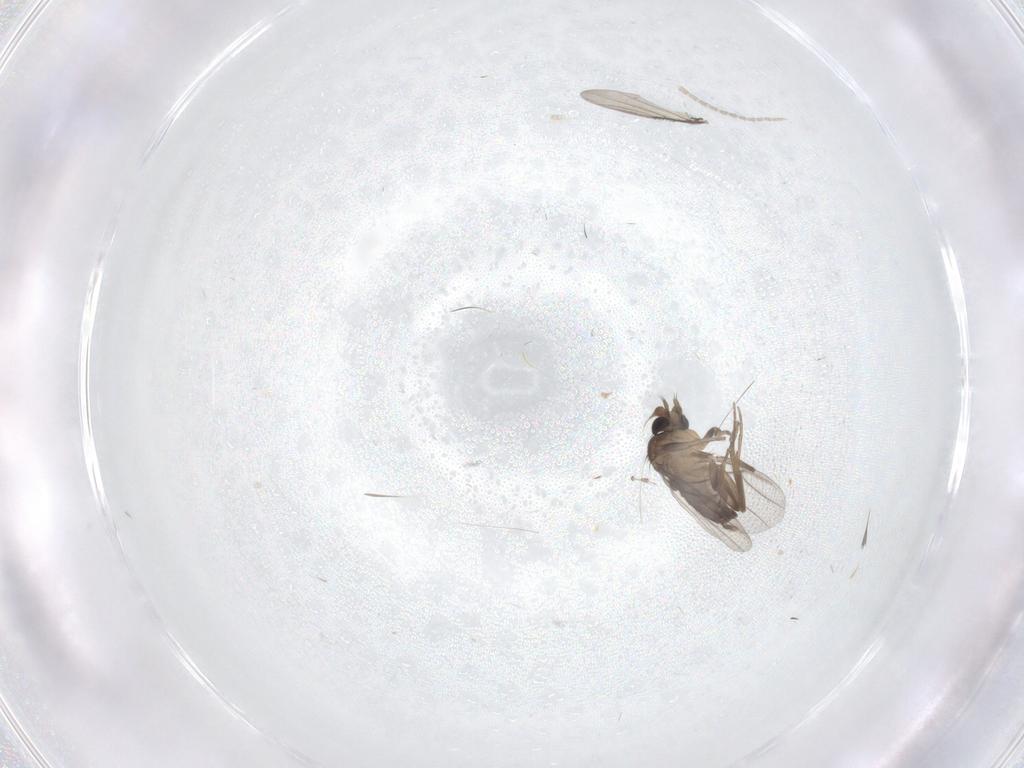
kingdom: Animalia
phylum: Arthropoda
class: Insecta
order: Diptera
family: Phoridae
